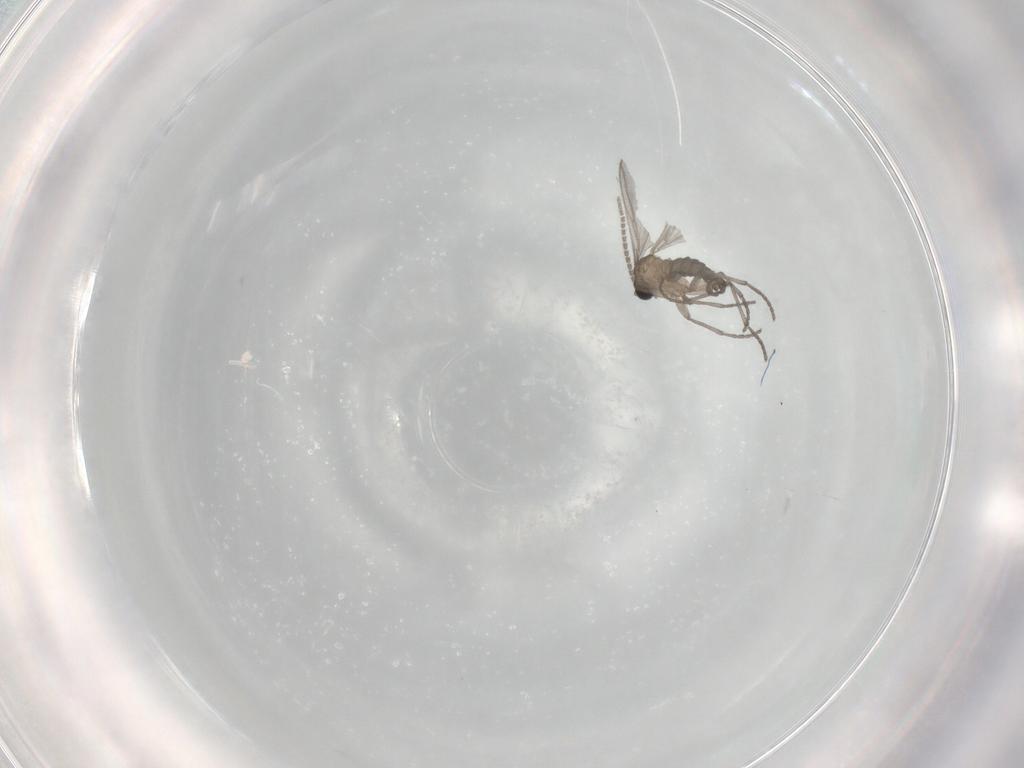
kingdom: Animalia
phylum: Arthropoda
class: Insecta
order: Diptera
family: Sciaridae
